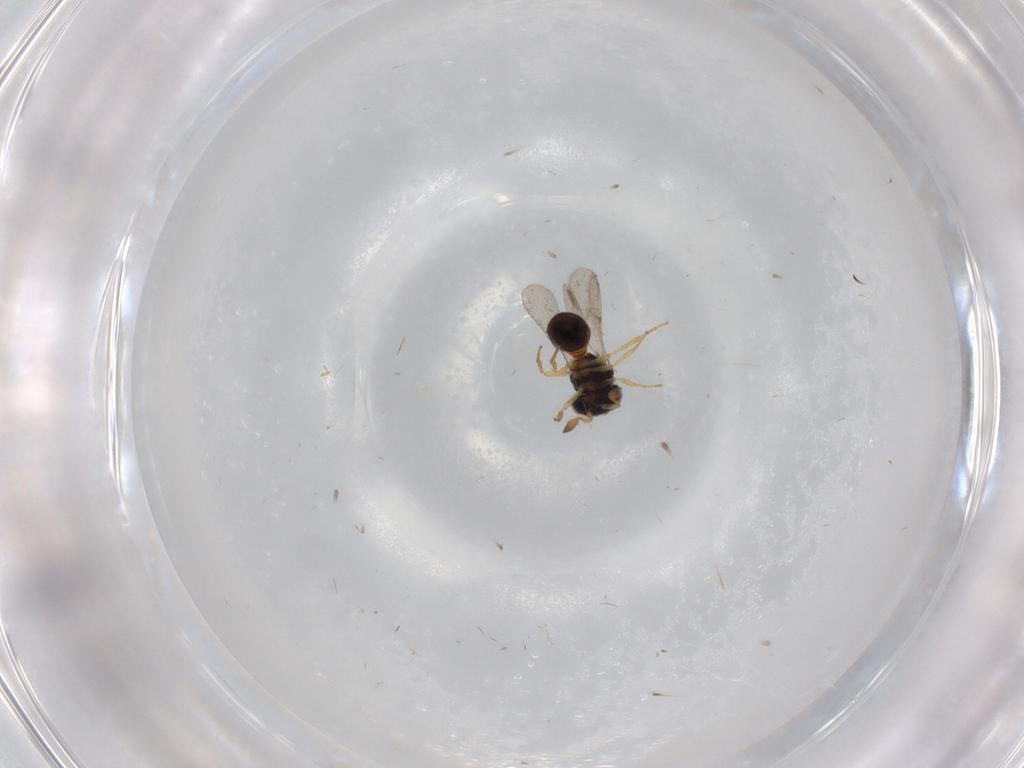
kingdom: Animalia
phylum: Arthropoda
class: Insecta
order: Hymenoptera
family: Scelionidae
